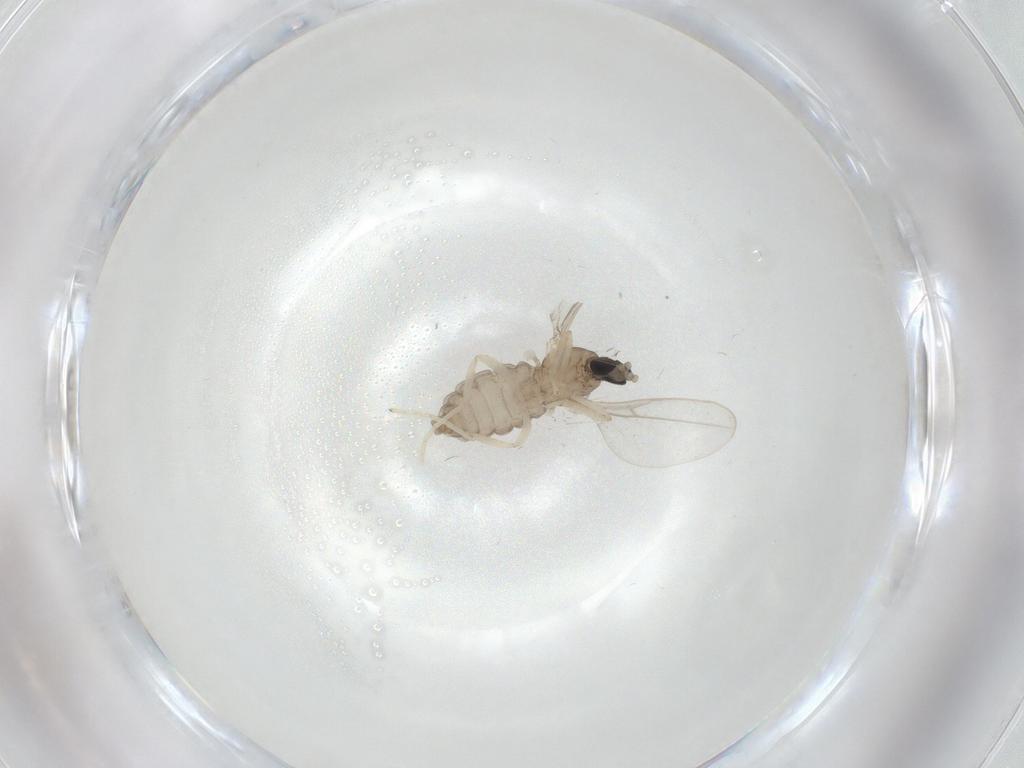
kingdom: Animalia
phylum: Arthropoda
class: Insecta
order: Diptera
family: Cecidomyiidae
